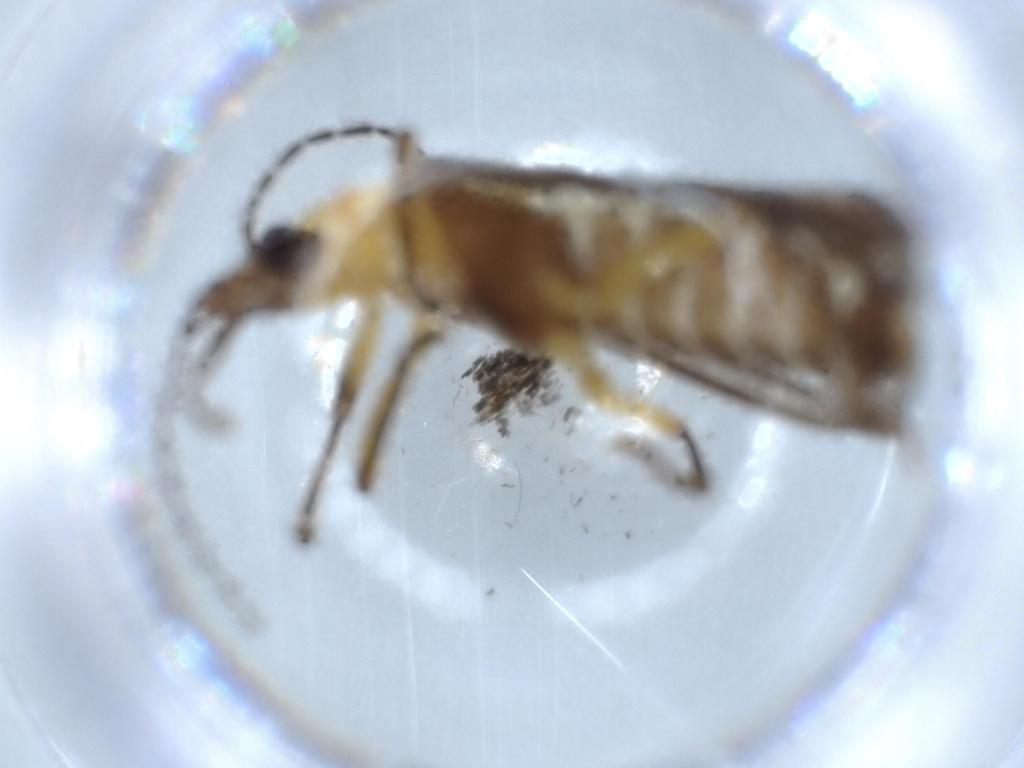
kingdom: Animalia
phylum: Arthropoda
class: Insecta
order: Coleoptera
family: Cantharidae
